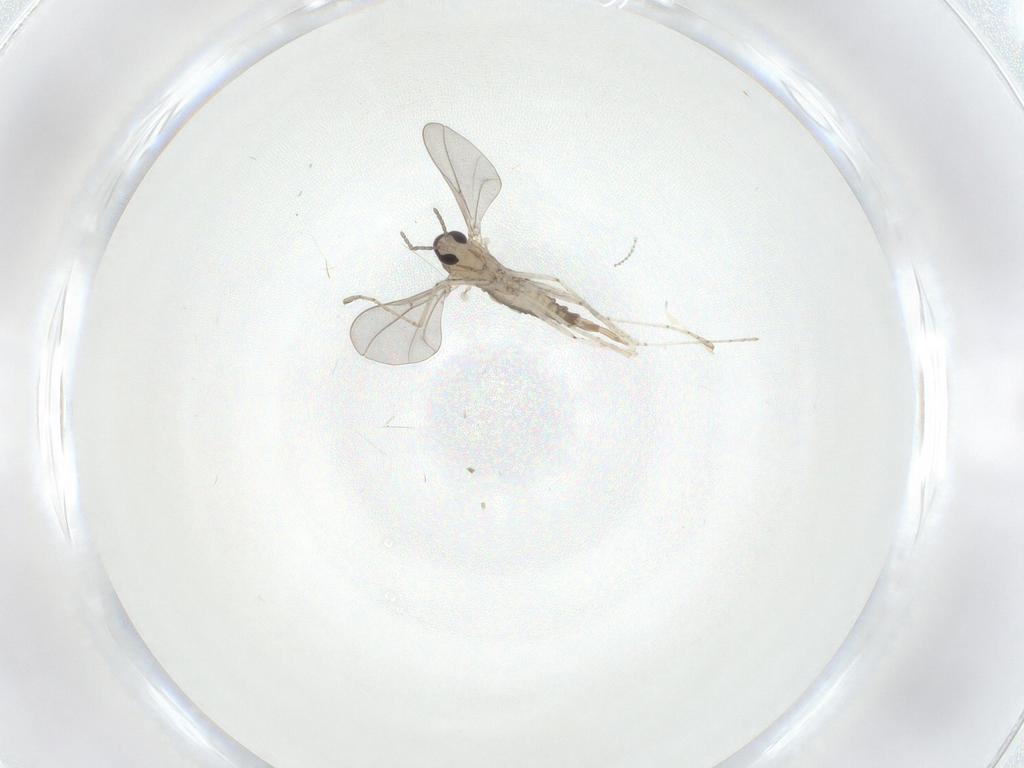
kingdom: Animalia
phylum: Arthropoda
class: Insecta
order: Diptera
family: Cecidomyiidae
